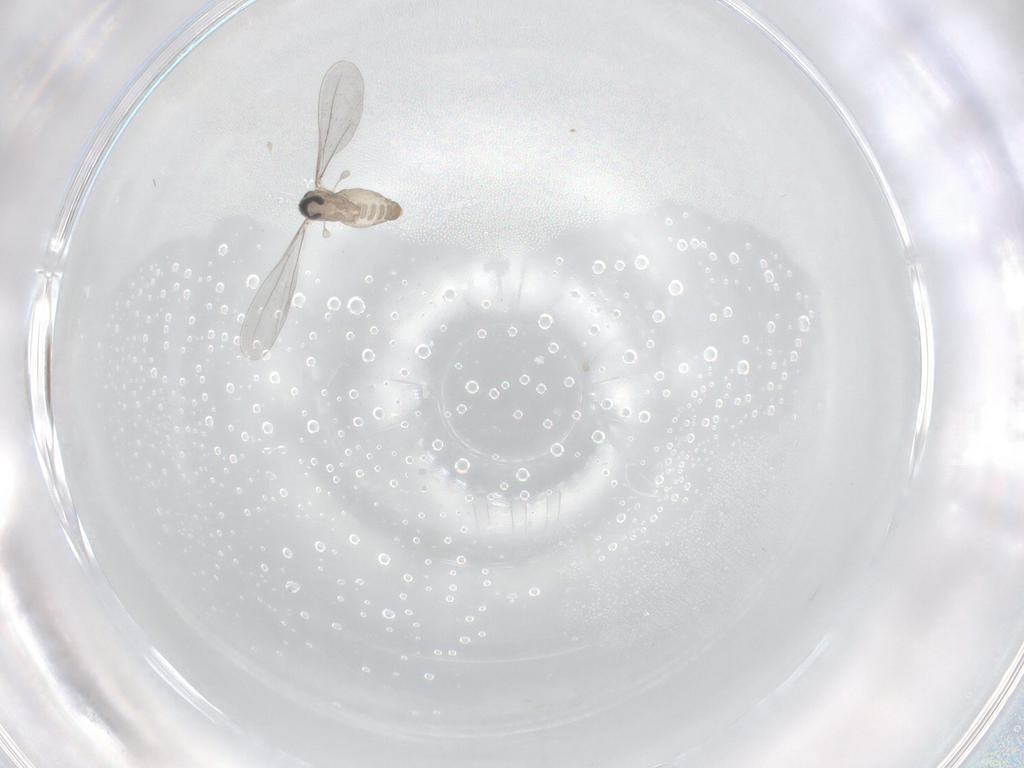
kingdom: Animalia
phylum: Arthropoda
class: Insecta
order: Diptera
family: Cecidomyiidae
